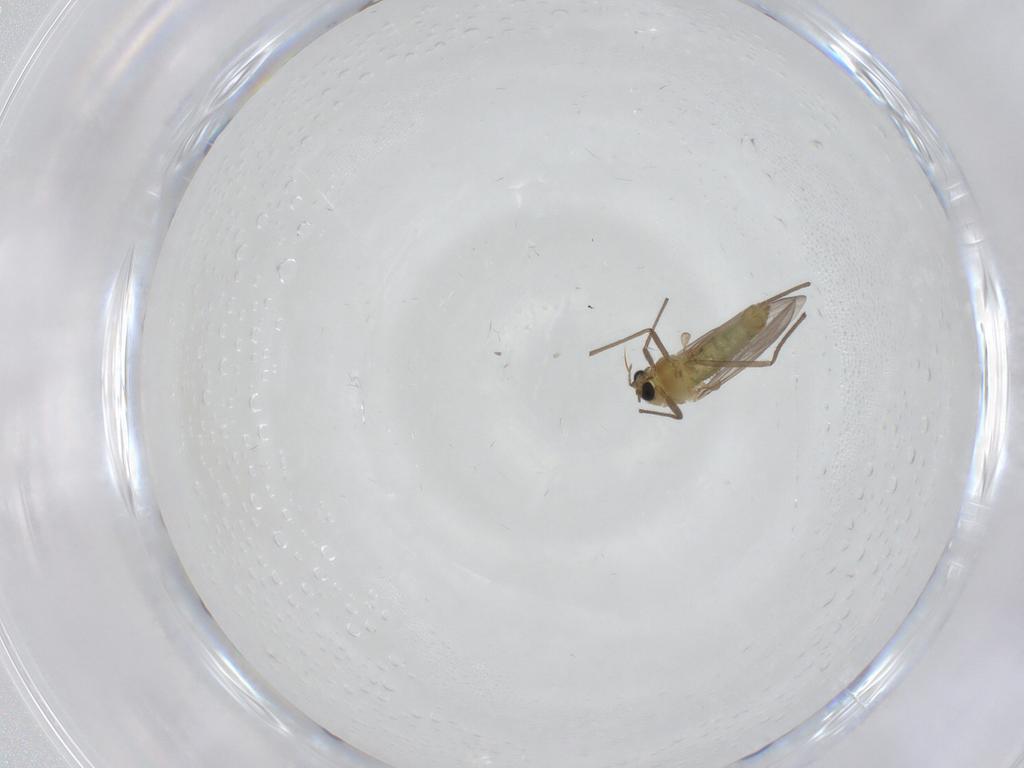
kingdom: Animalia
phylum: Arthropoda
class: Insecta
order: Diptera
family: Chironomidae
